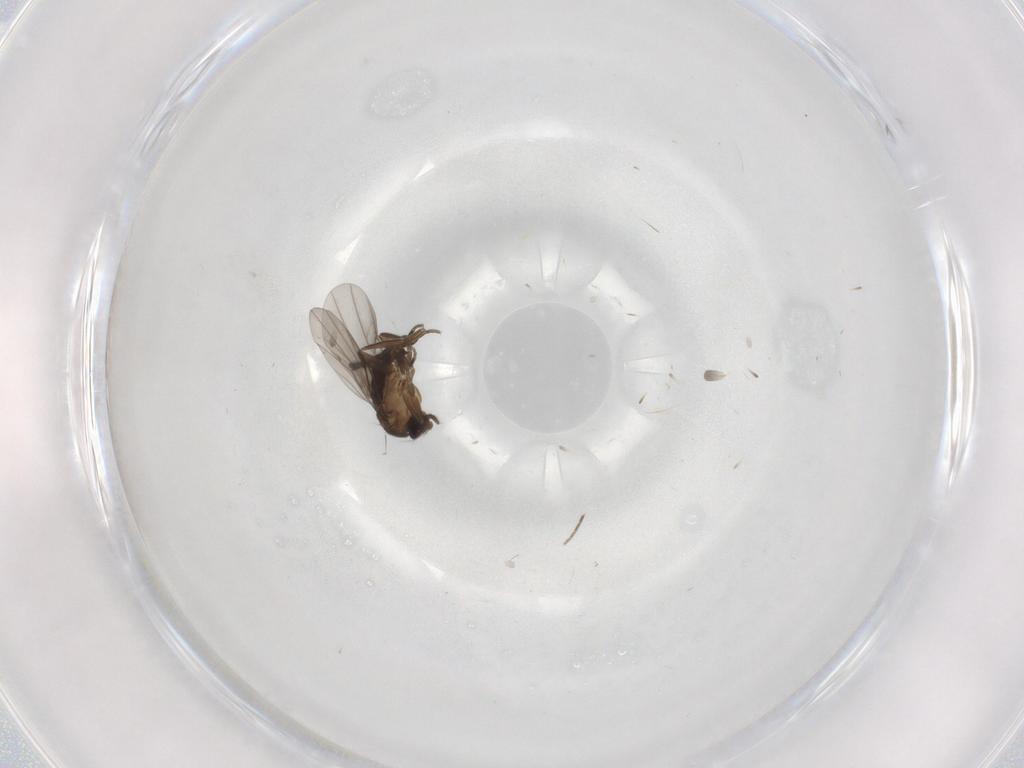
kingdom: Animalia
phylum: Arthropoda
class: Insecta
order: Diptera
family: Phoridae
